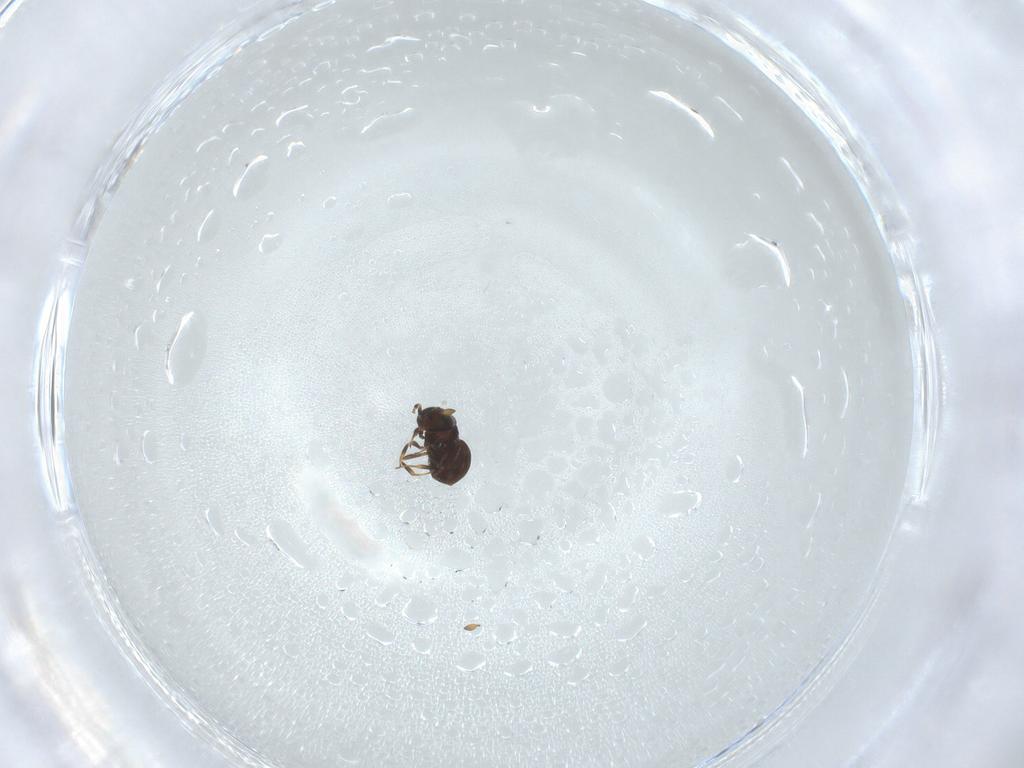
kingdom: Animalia
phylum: Arthropoda
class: Insecta
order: Hymenoptera
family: Scelionidae
